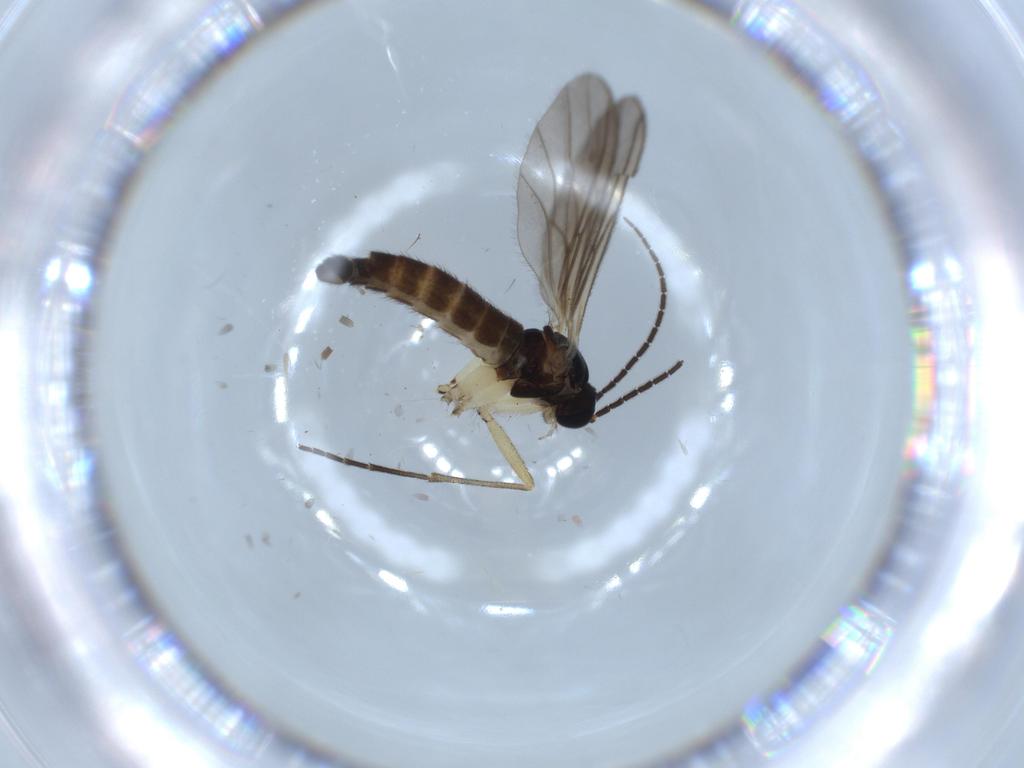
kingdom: Animalia
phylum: Arthropoda
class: Insecta
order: Diptera
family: Sciaridae
